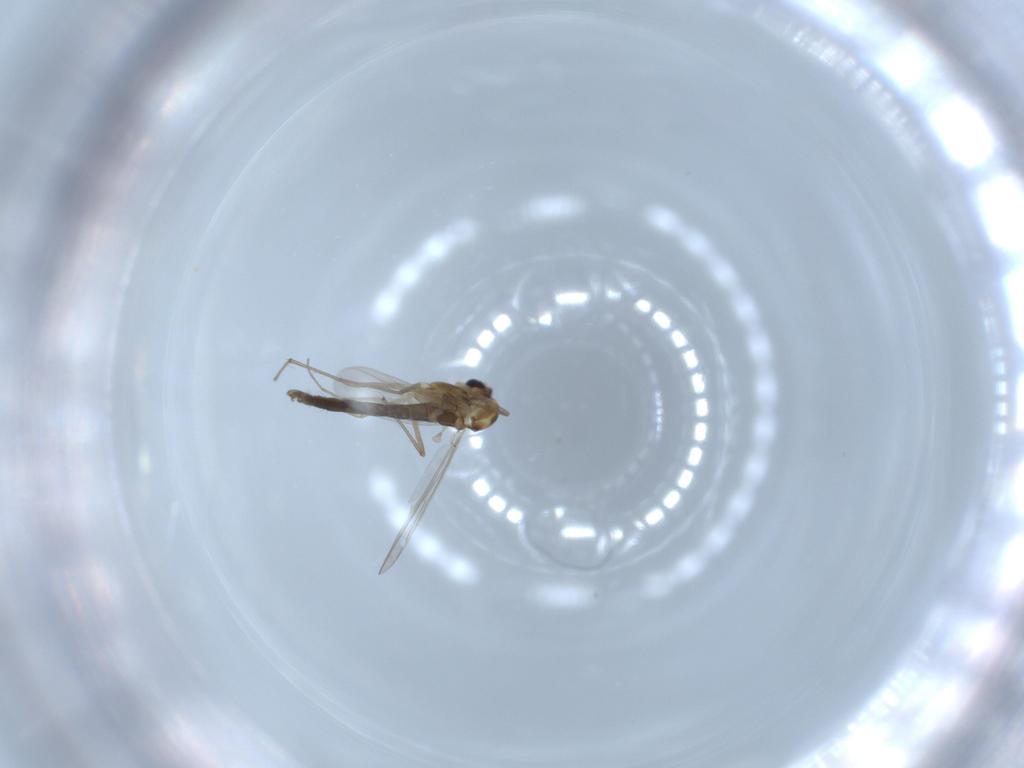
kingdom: Animalia
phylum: Arthropoda
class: Insecta
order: Diptera
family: Chironomidae
